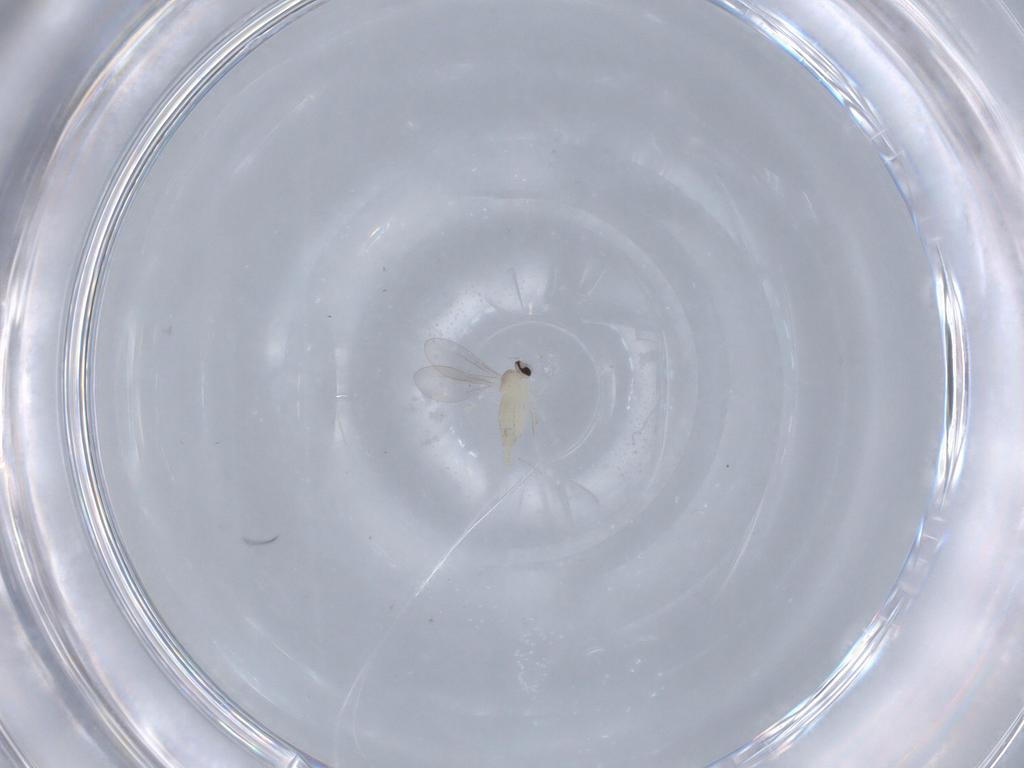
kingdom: Animalia
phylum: Arthropoda
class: Insecta
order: Diptera
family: Cecidomyiidae
